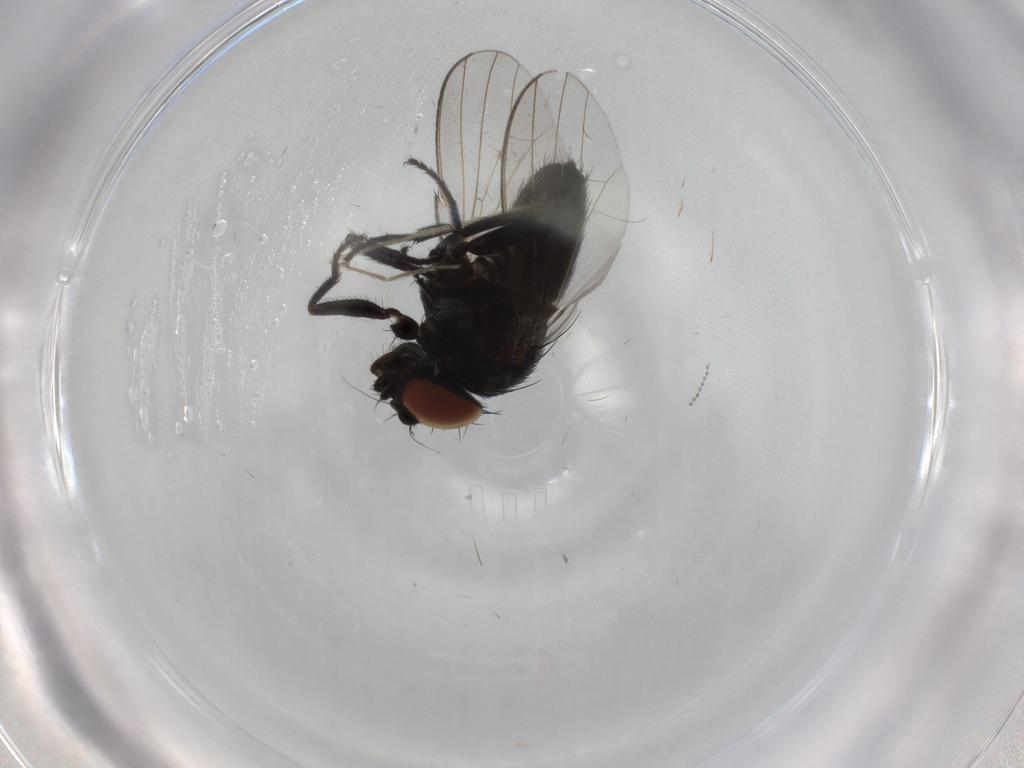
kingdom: Animalia
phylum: Arthropoda
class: Insecta
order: Diptera
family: Milichiidae
